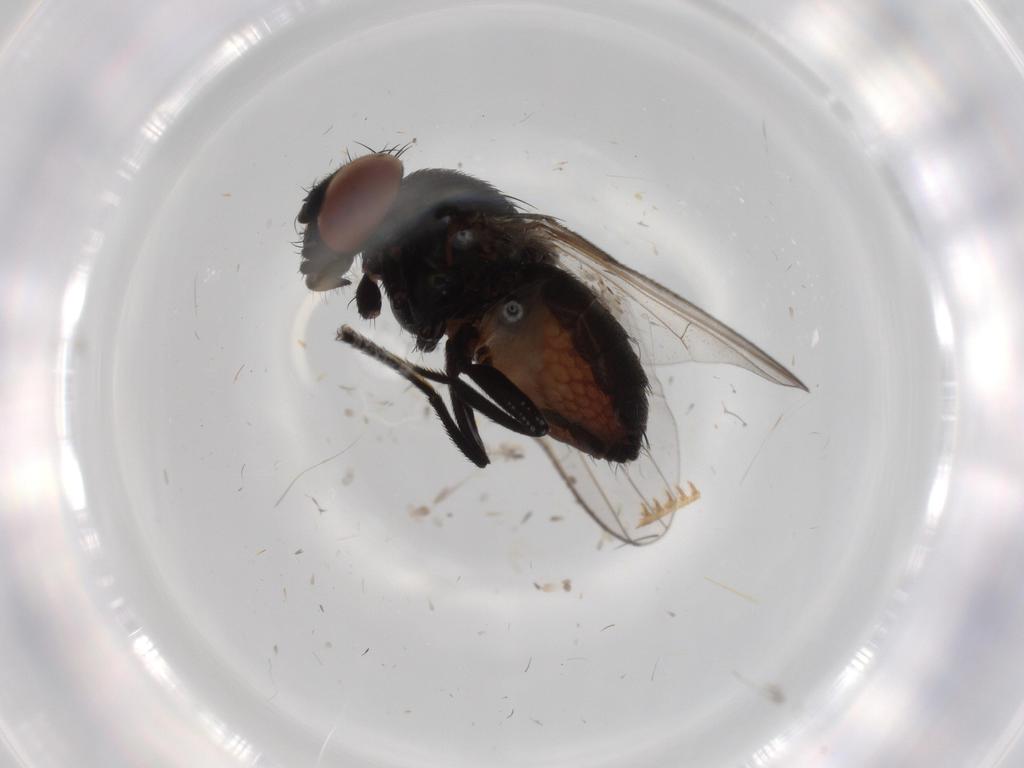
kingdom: Animalia
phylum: Arthropoda
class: Insecta
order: Diptera
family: Milichiidae
